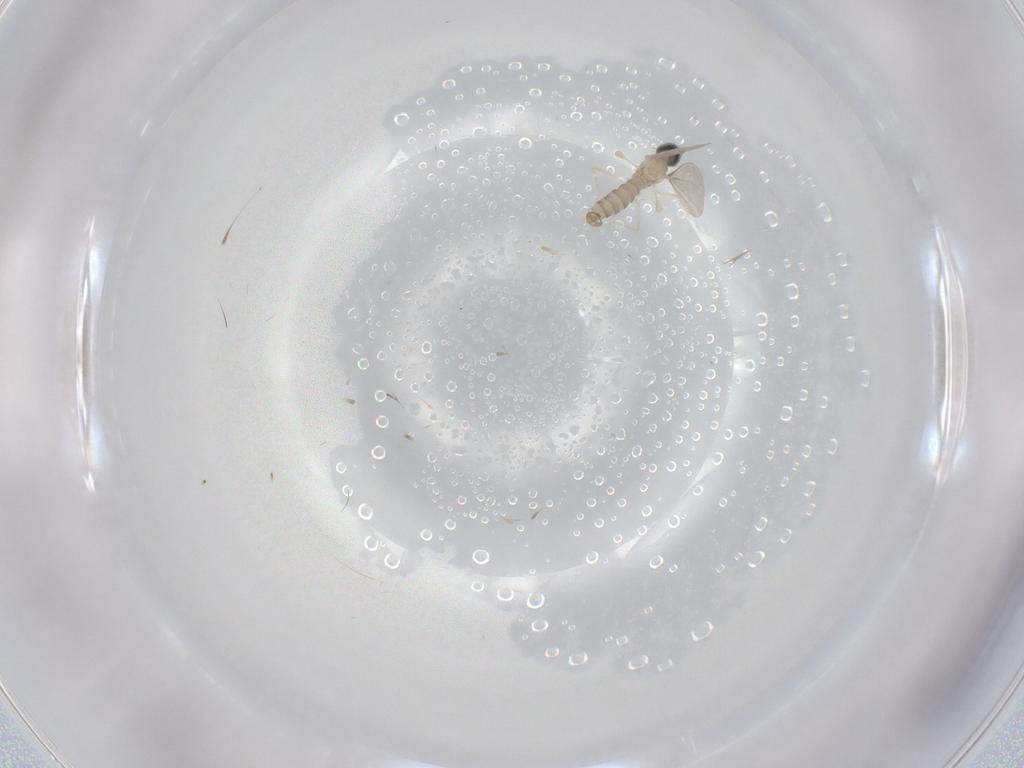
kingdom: Animalia
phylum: Arthropoda
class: Insecta
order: Diptera
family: Cecidomyiidae
